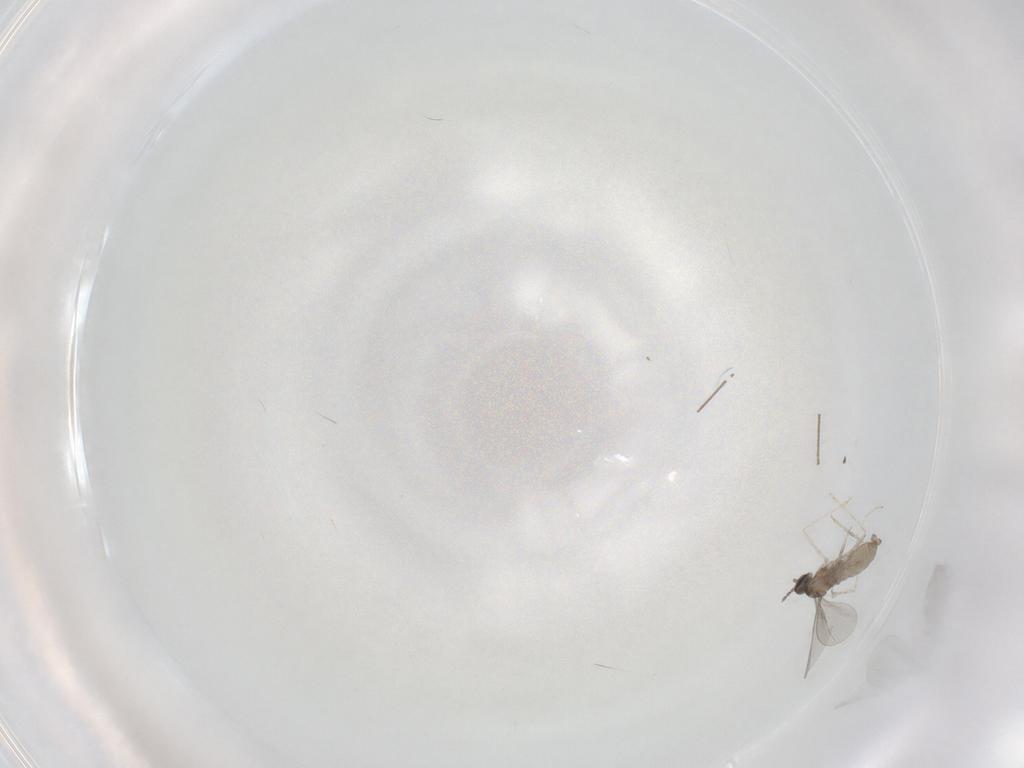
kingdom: Animalia
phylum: Arthropoda
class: Insecta
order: Diptera
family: Chironomidae
